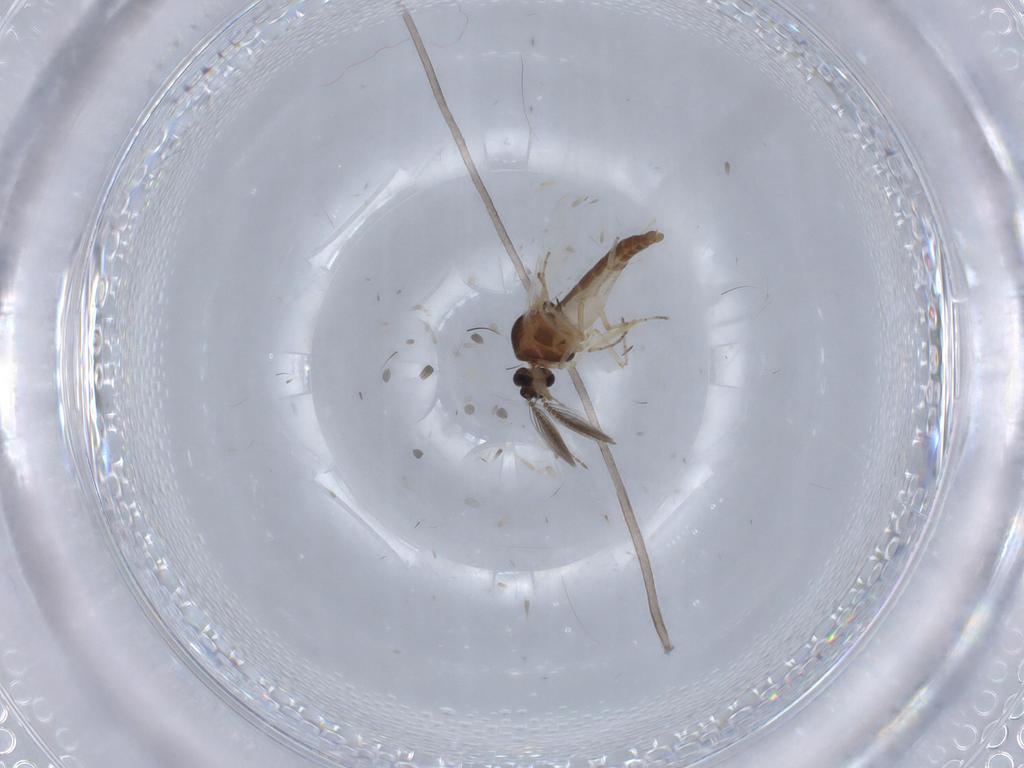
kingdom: Animalia
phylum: Arthropoda
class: Insecta
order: Diptera
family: Ceratopogonidae
